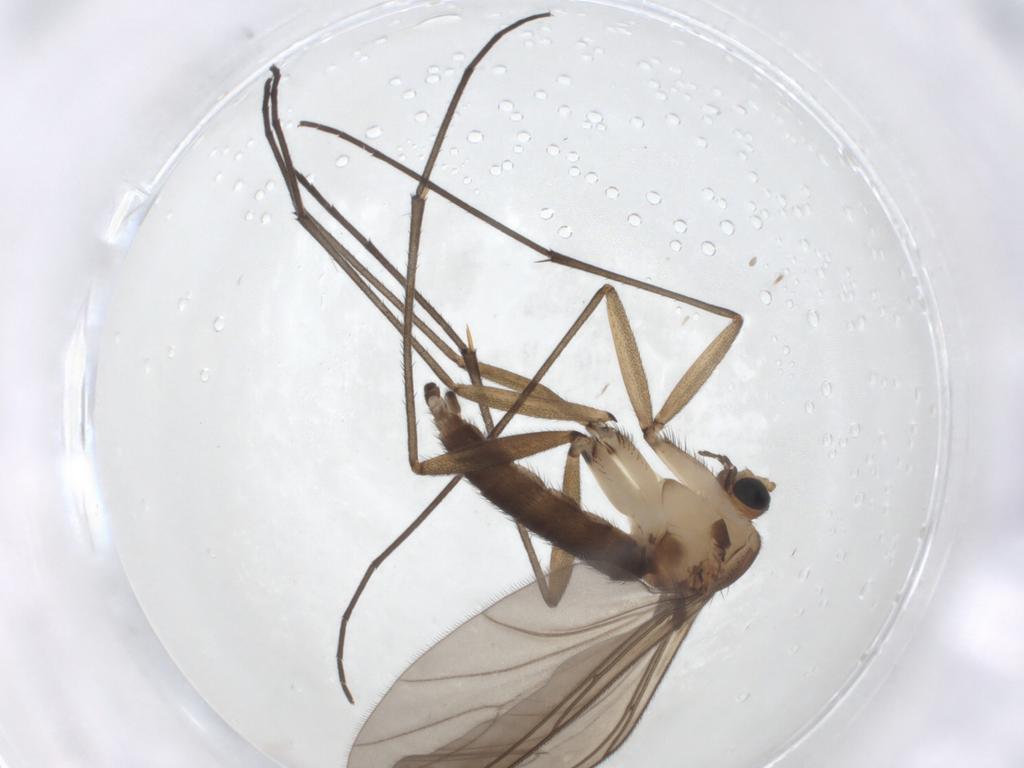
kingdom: Animalia
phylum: Arthropoda
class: Insecta
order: Diptera
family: Sciaridae
